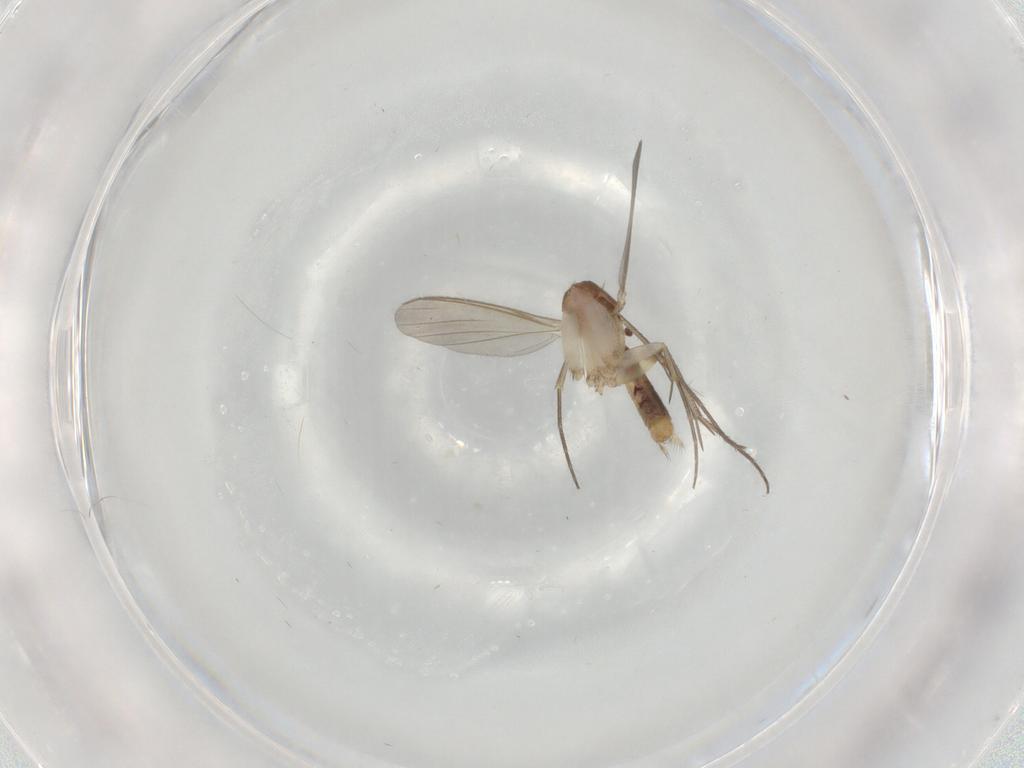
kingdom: Animalia
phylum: Arthropoda
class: Insecta
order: Diptera
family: Mycetophilidae
